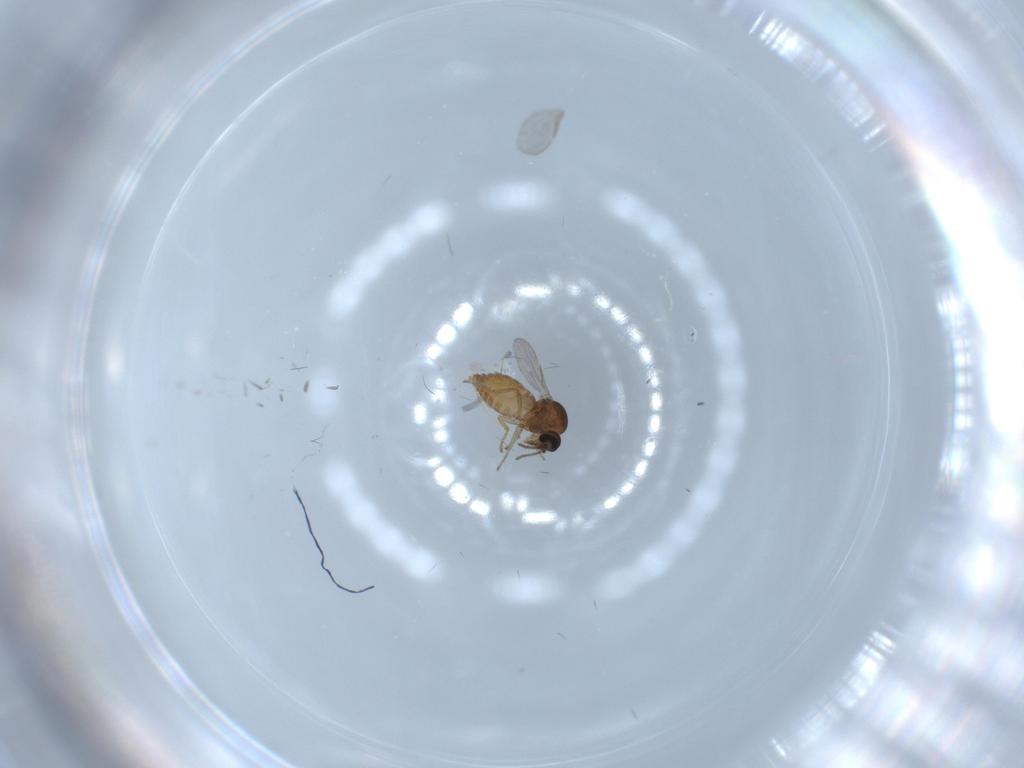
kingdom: Animalia
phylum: Arthropoda
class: Insecta
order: Diptera
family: Ceratopogonidae
